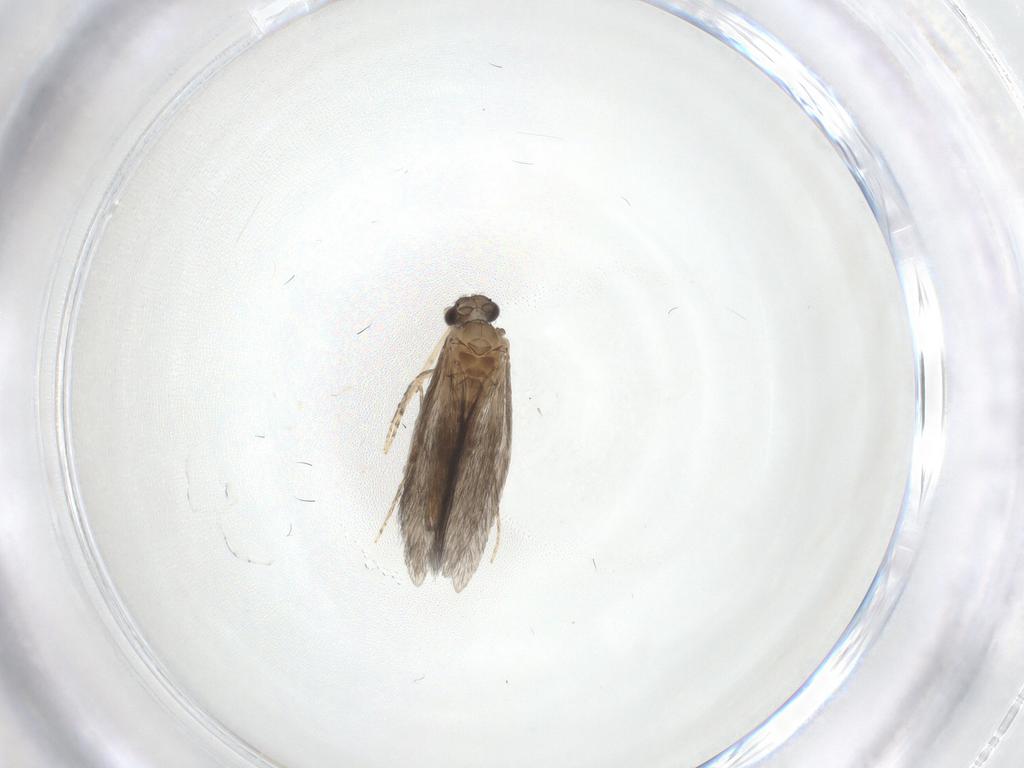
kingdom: Animalia
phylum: Arthropoda
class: Insecta
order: Trichoptera
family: Hydroptilidae
